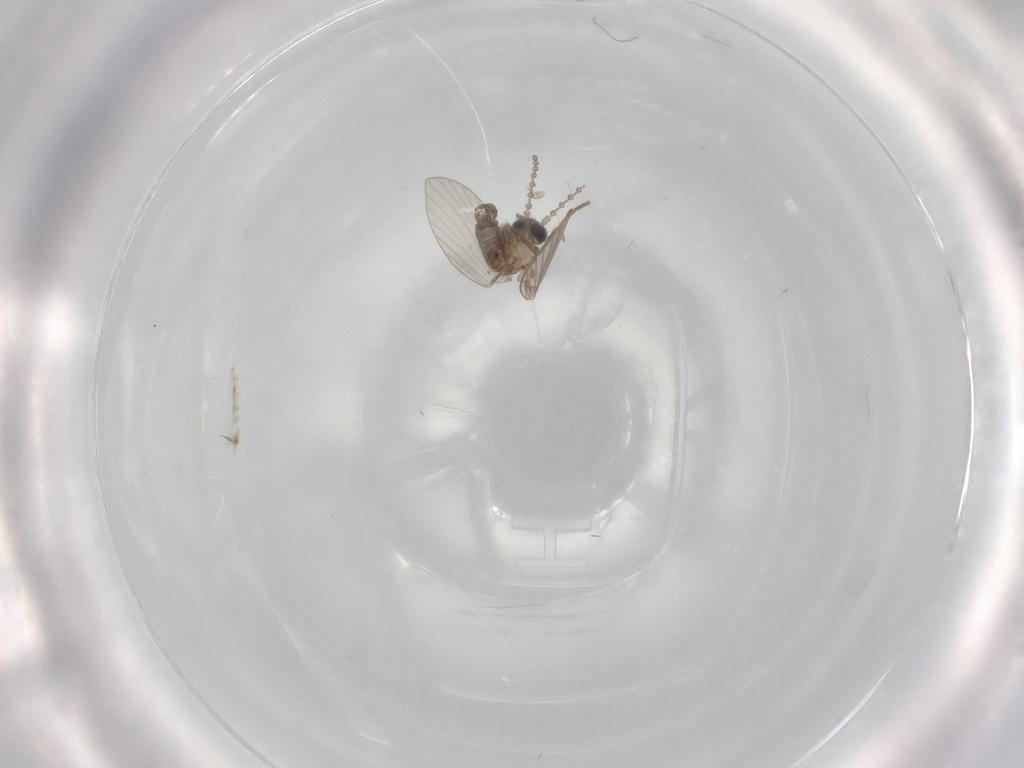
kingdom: Animalia
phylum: Arthropoda
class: Insecta
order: Diptera
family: Psychodidae
